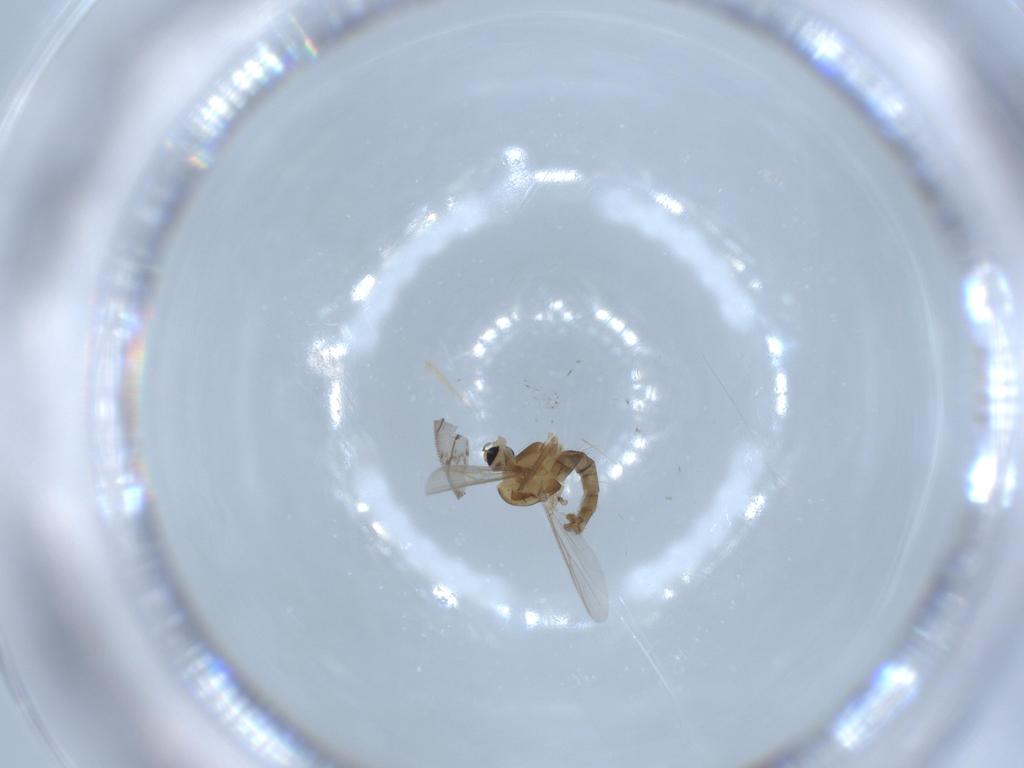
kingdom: Animalia
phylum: Arthropoda
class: Insecta
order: Diptera
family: Chironomidae
